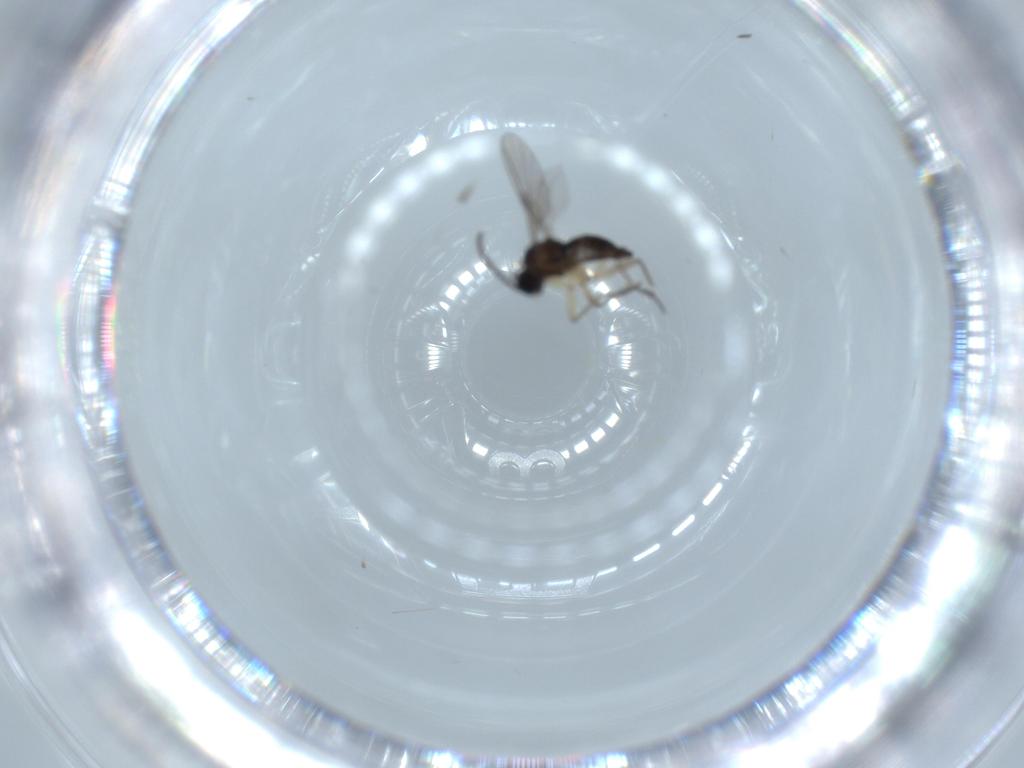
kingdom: Animalia
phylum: Arthropoda
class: Insecta
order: Diptera
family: Sciaridae
